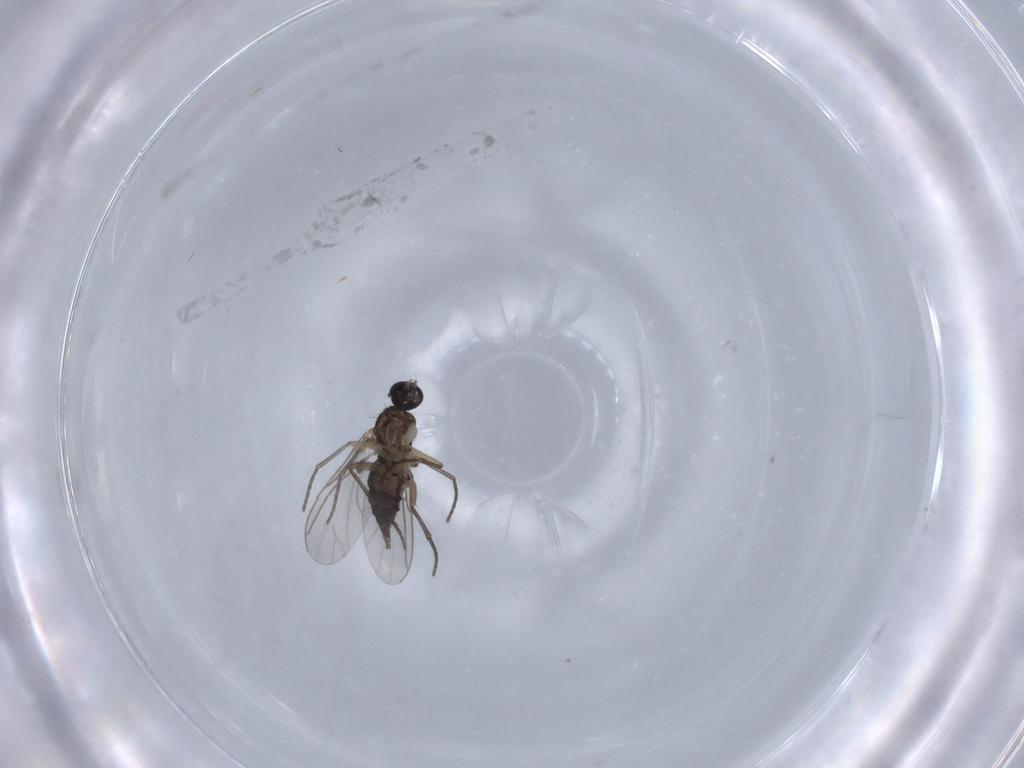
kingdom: Animalia
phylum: Arthropoda
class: Insecta
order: Diptera
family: Sciaridae
